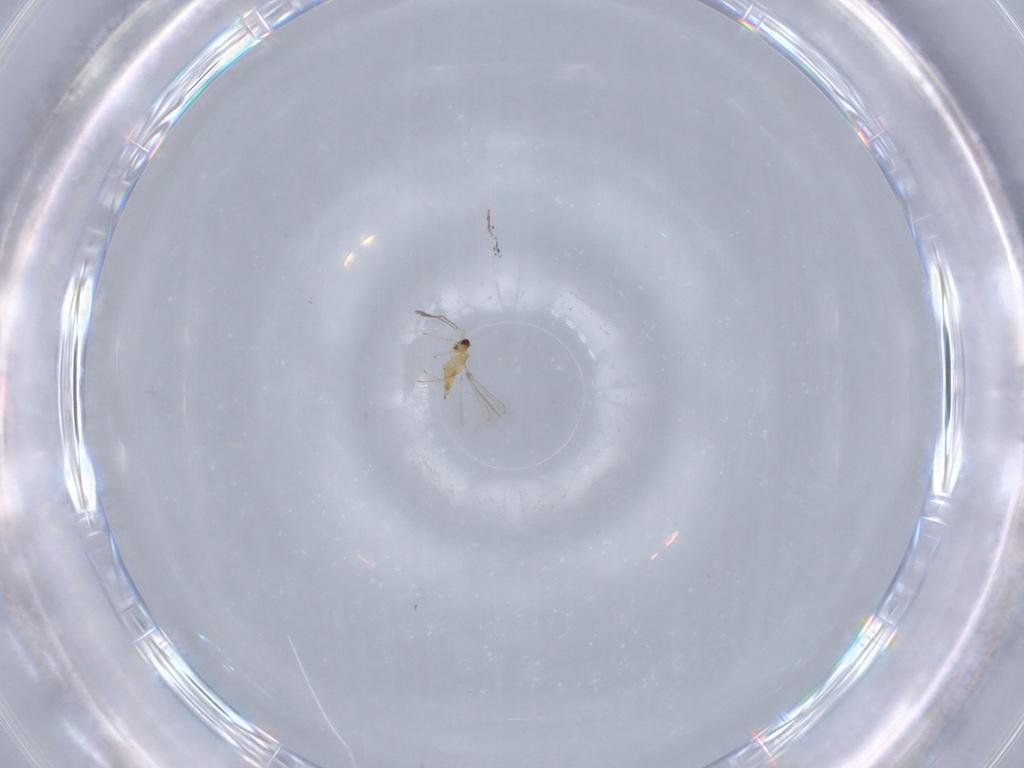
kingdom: Animalia
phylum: Arthropoda
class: Insecta
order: Hymenoptera
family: Mymaridae
